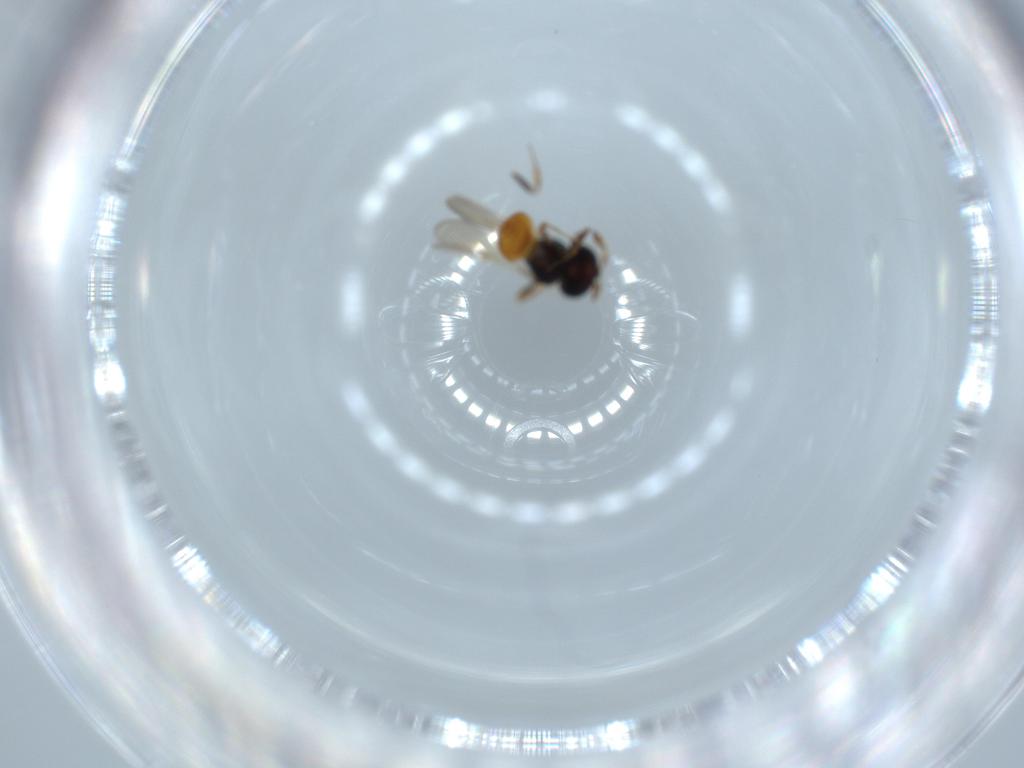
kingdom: Animalia
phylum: Arthropoda
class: Insecta
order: Hymenoptera
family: Scelionidae
